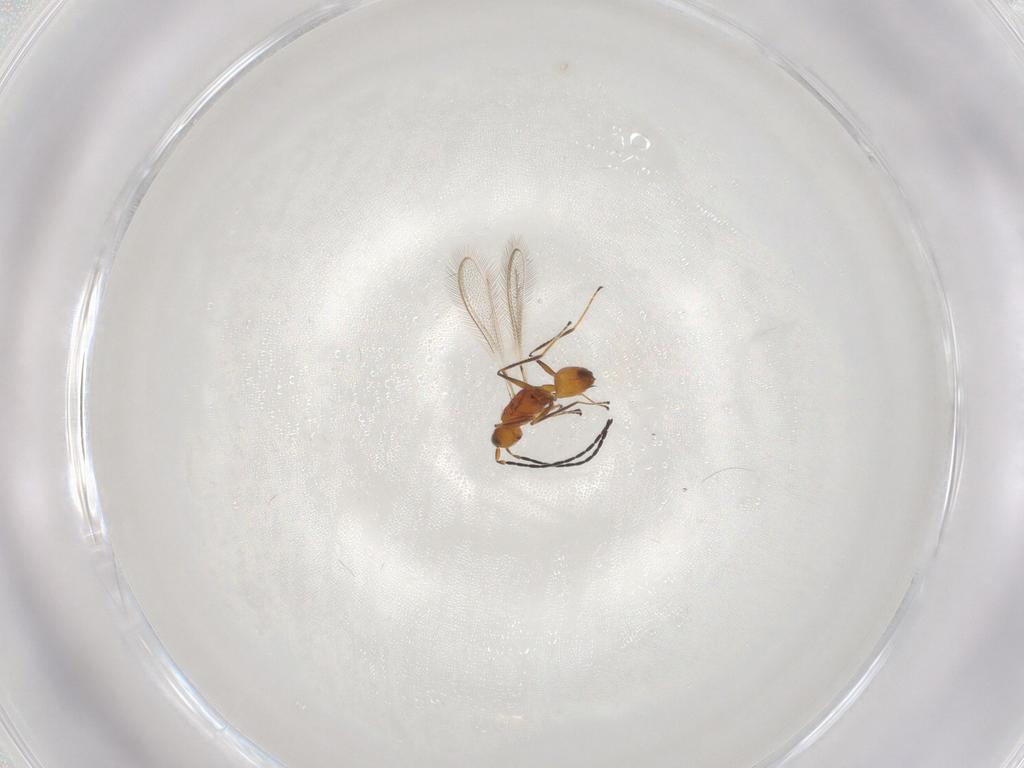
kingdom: Animalia
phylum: Arthropoda
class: Insecta
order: Hymenoptera
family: Mymaridae
